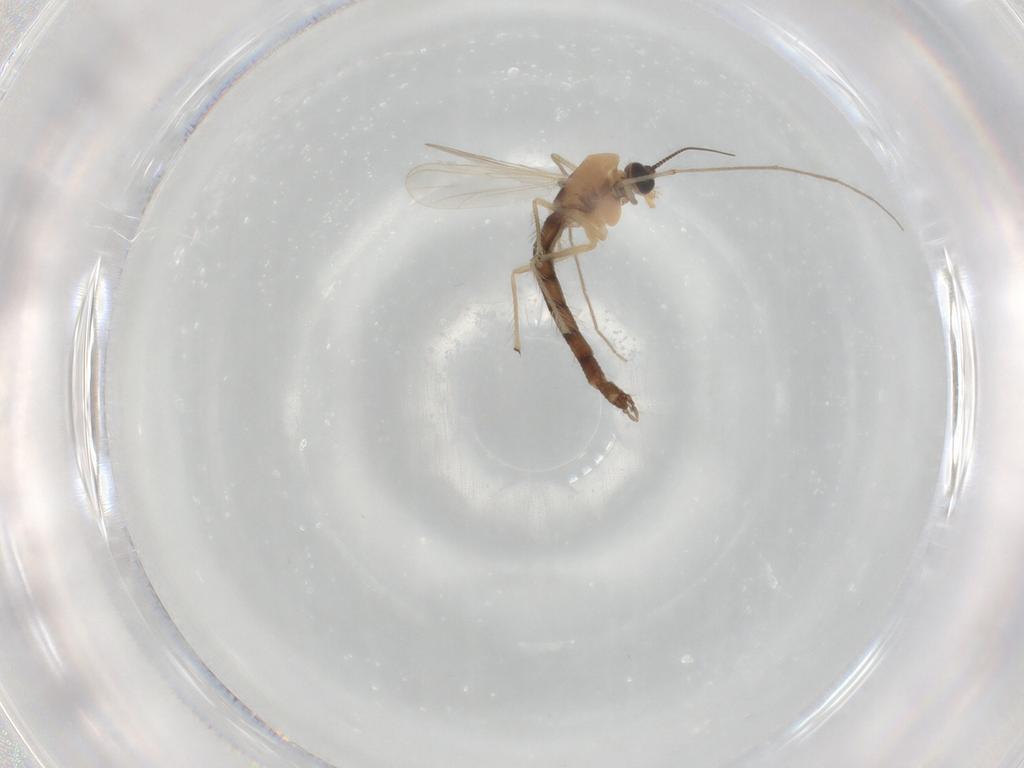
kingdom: Animalia
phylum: Arthropoda
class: Insecta
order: Diptera
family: Chironomidae
